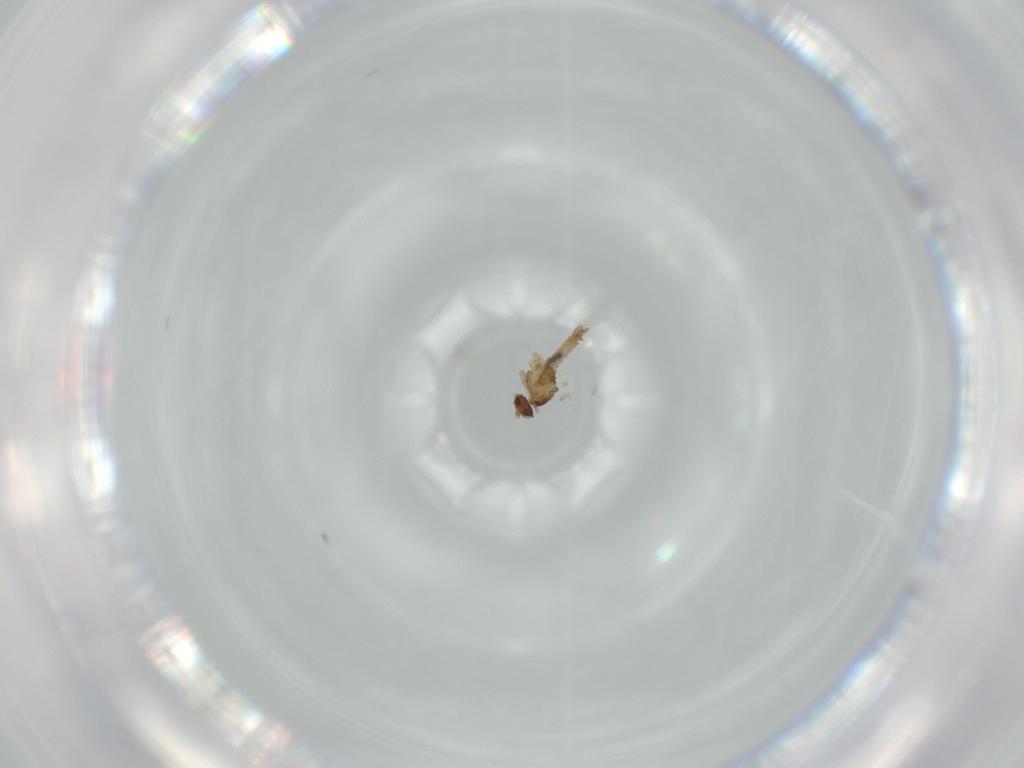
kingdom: Animalia
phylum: Arthropoda
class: Insecta
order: Diptera
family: Cecidomyiidae
